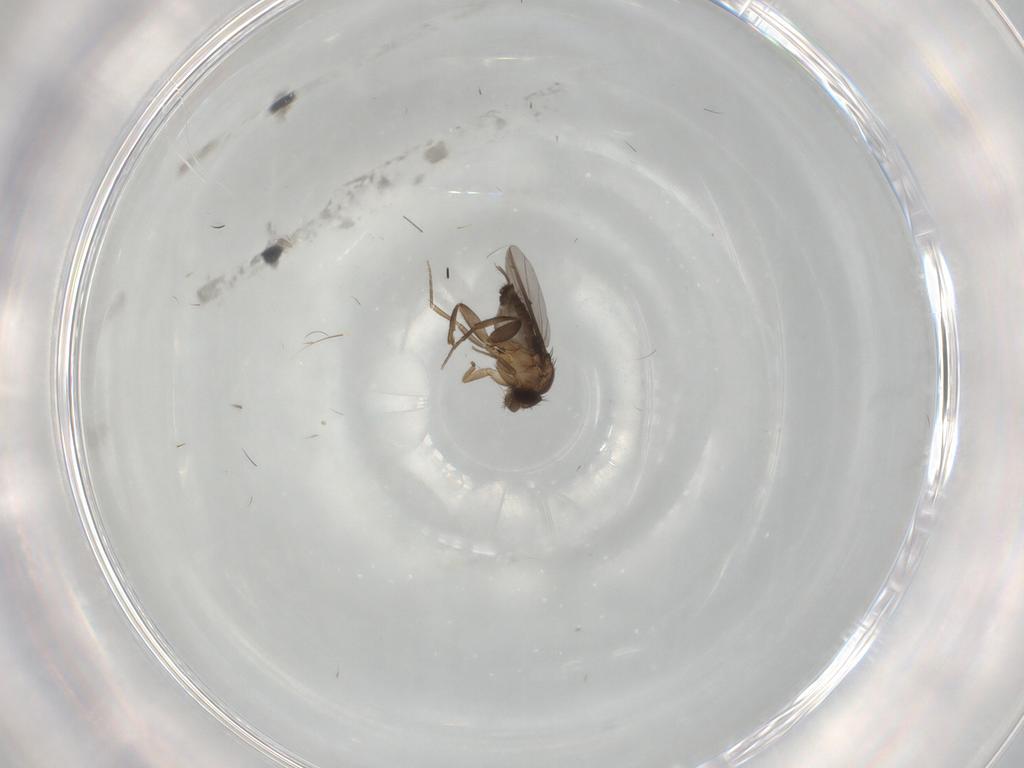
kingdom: Animalia
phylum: Arthropoda
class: Insecta
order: Diptera
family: Phoridae
